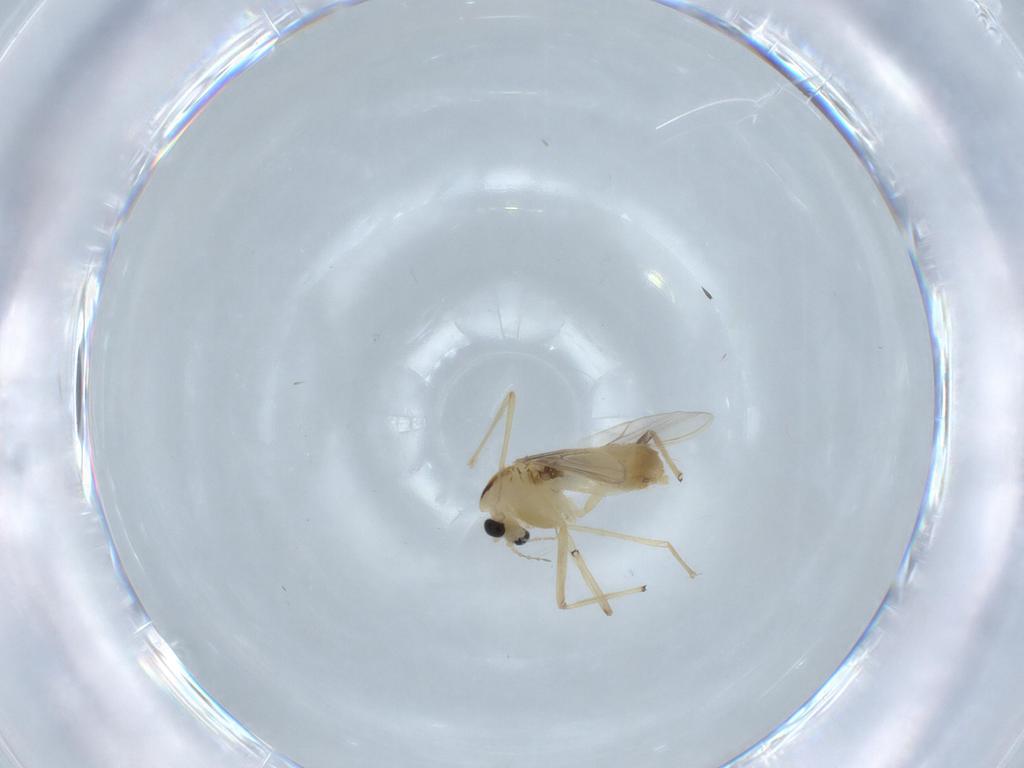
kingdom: Animalia
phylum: Arthropoda
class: Insecta
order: Diptera
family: Chironomidae
